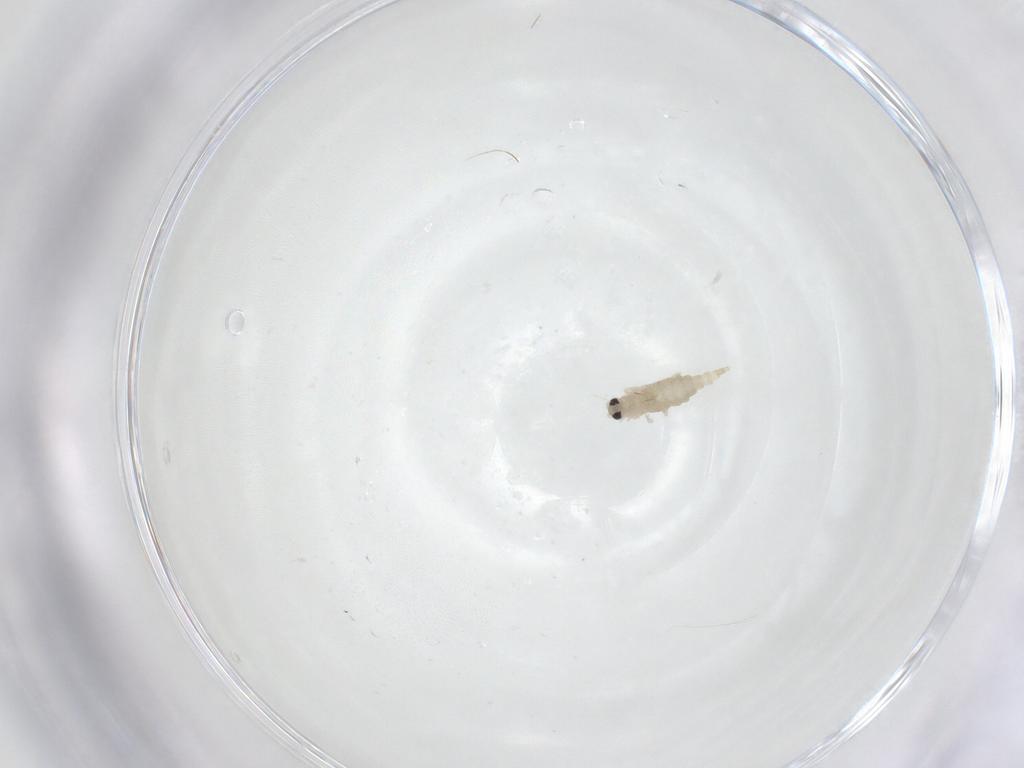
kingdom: Animalia
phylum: Arthropoda
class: Insecta
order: Diptera
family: Cecidomyiidae
